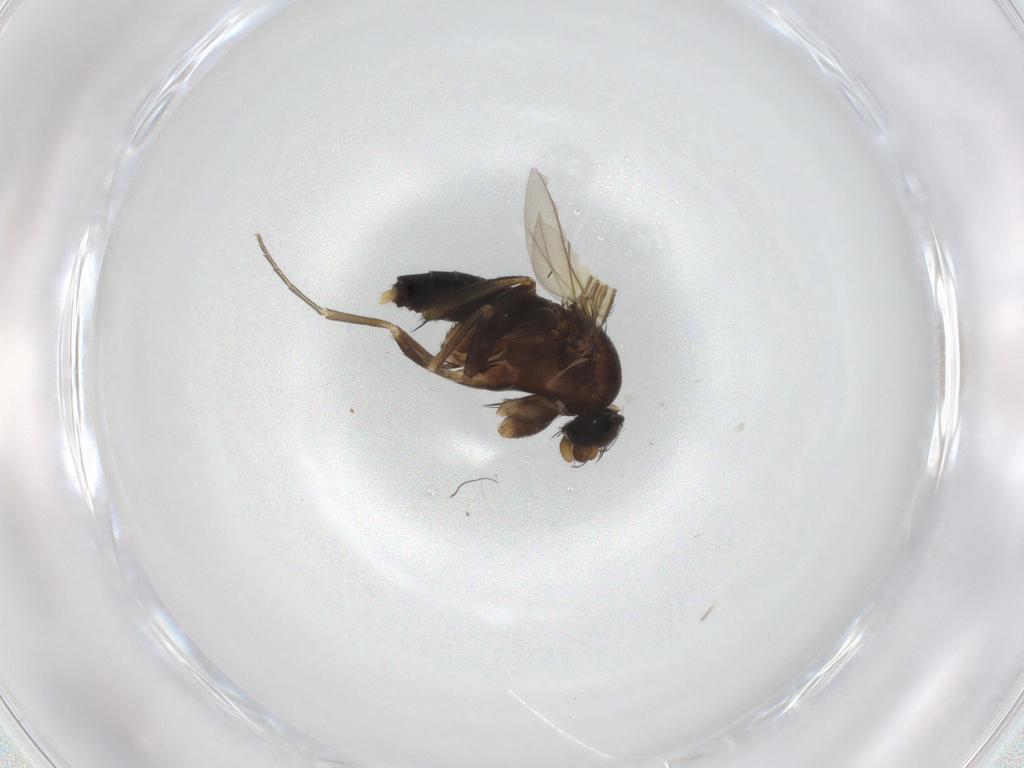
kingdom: Animalia
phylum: Arthropoda
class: Insecta
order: Diptera
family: Phoridae
